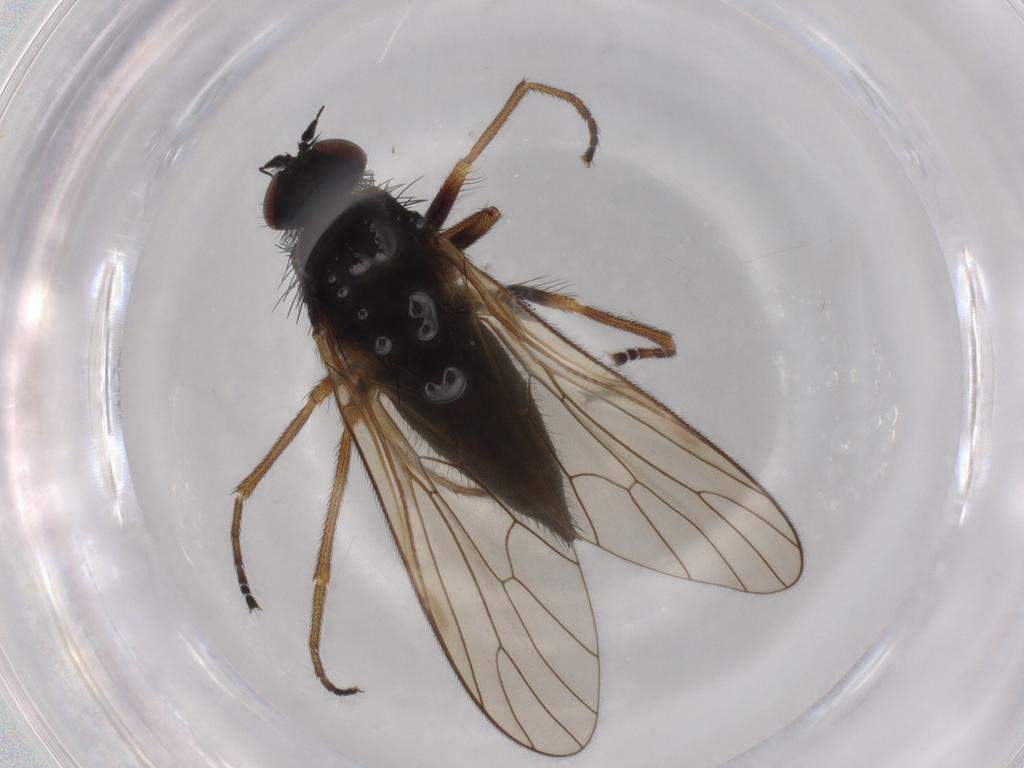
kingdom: Animalia
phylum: Arthropoda
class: Insecta
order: Diptera
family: Brachystomatidae
